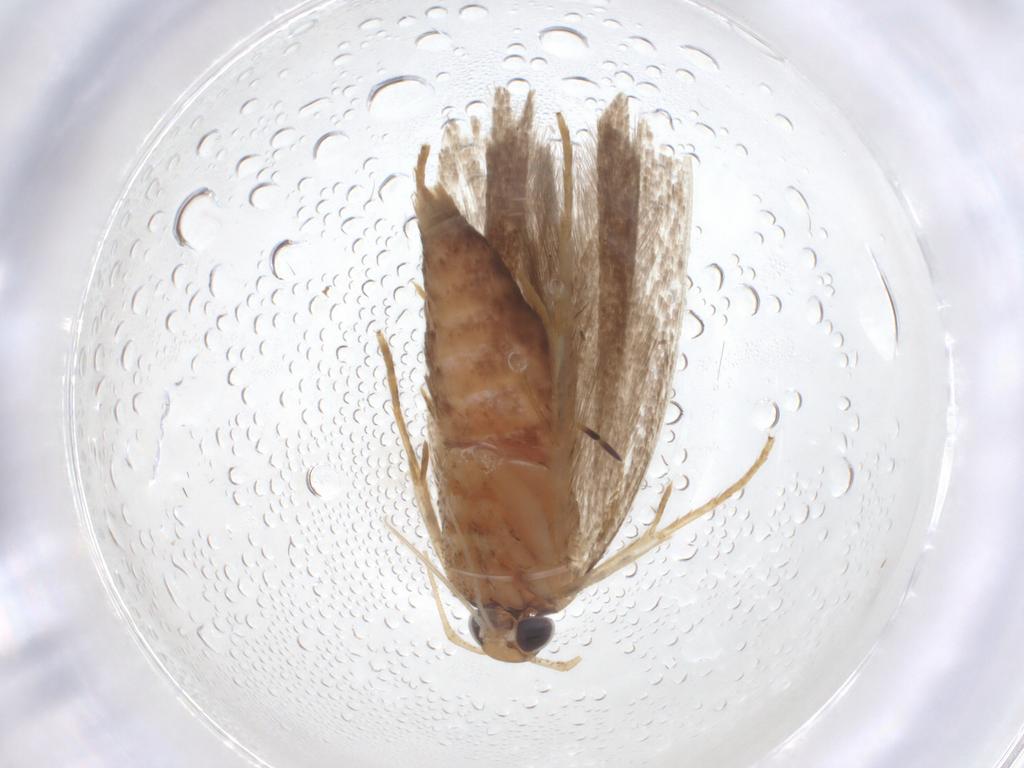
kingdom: Animalia
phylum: Arthropoda
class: Insecta
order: Lepidoptera
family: Gelechiidae
